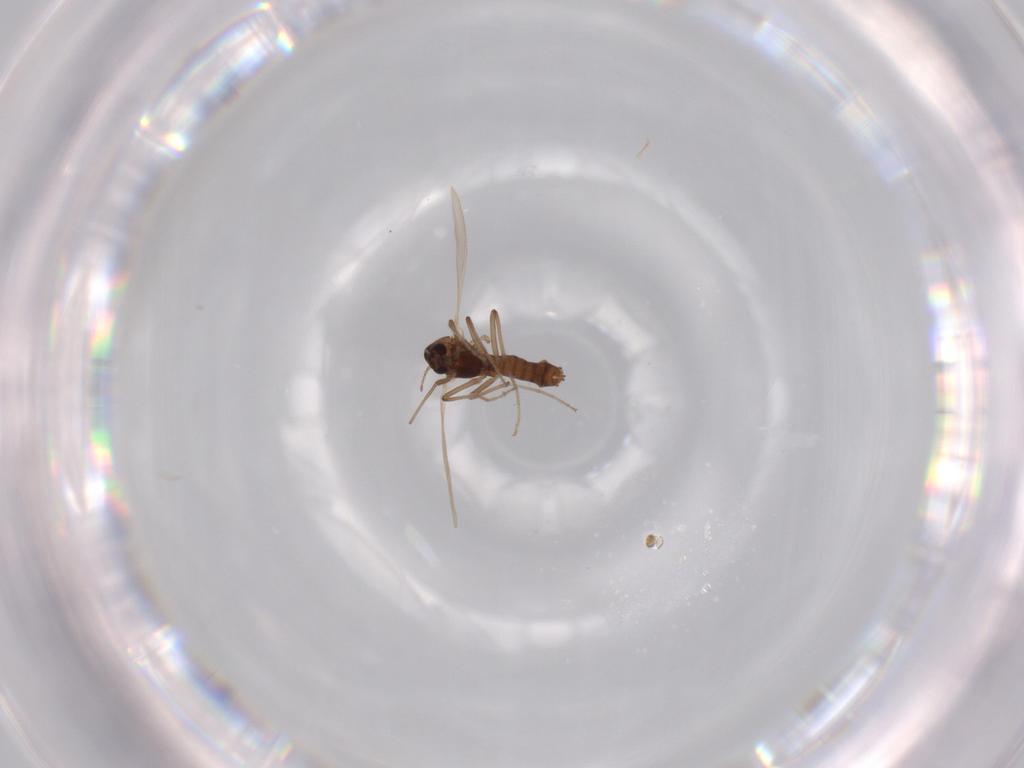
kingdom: Animalia
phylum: Arthropoda
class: Insecta
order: Diptera
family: Chironomidae
